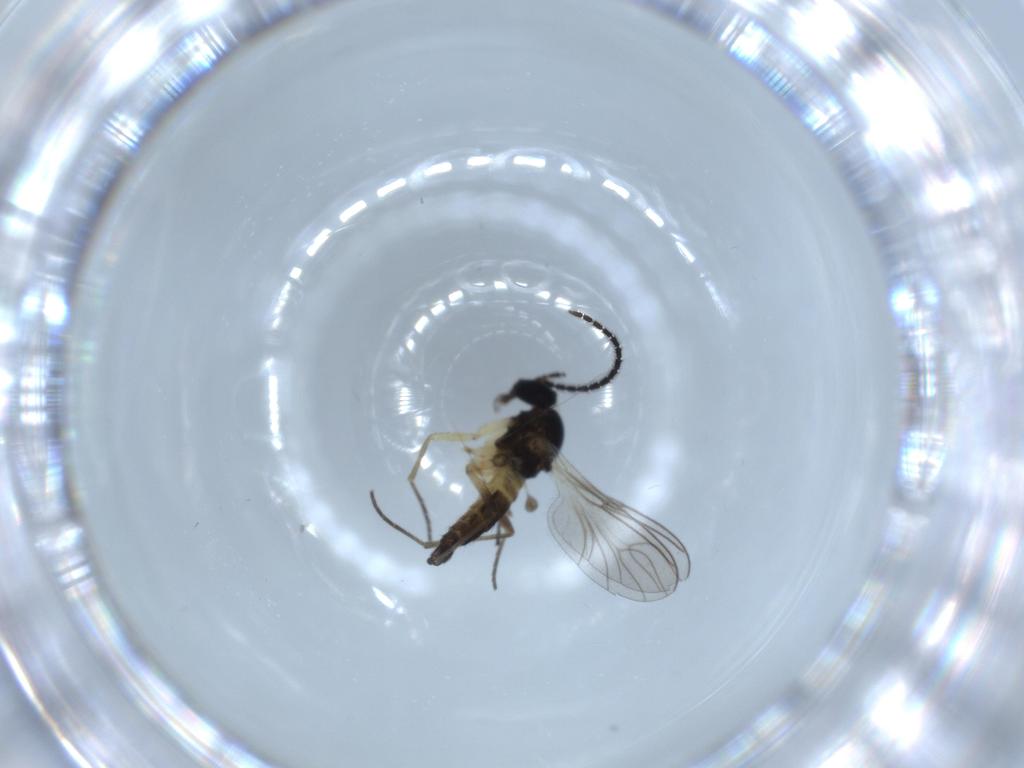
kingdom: Animalia
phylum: Arthropoda
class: Insecta
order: Diptera
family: Sciaridae
